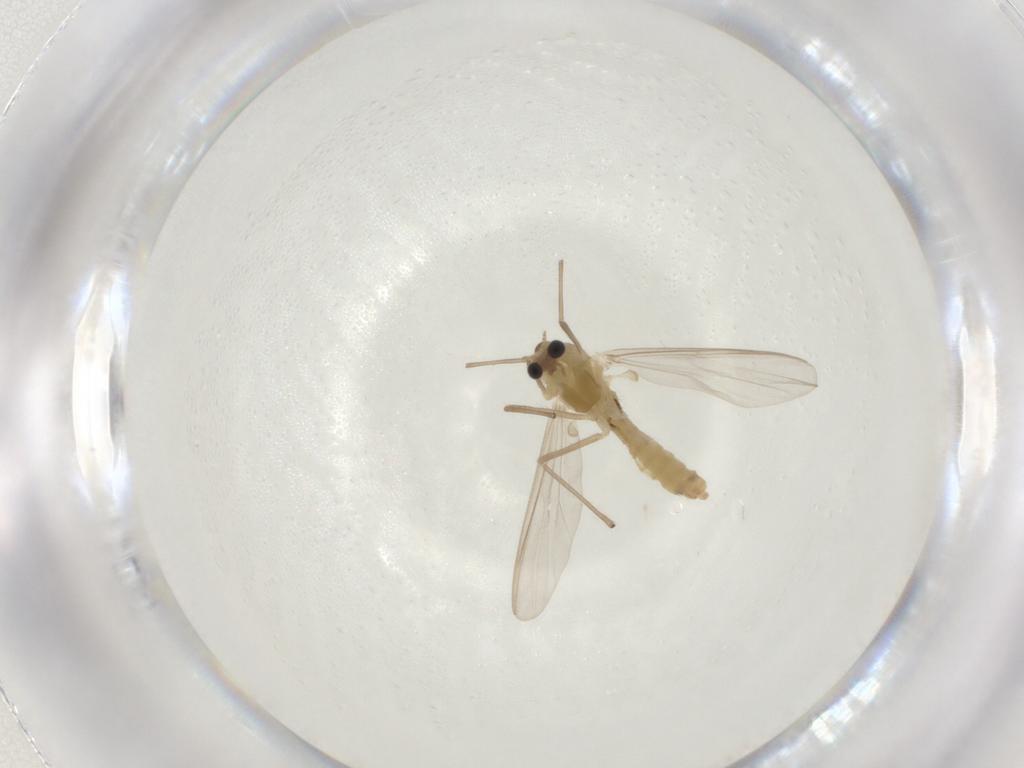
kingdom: Animalia
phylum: Arthropoda
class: Insecta
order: Diptera
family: Chironomidae
